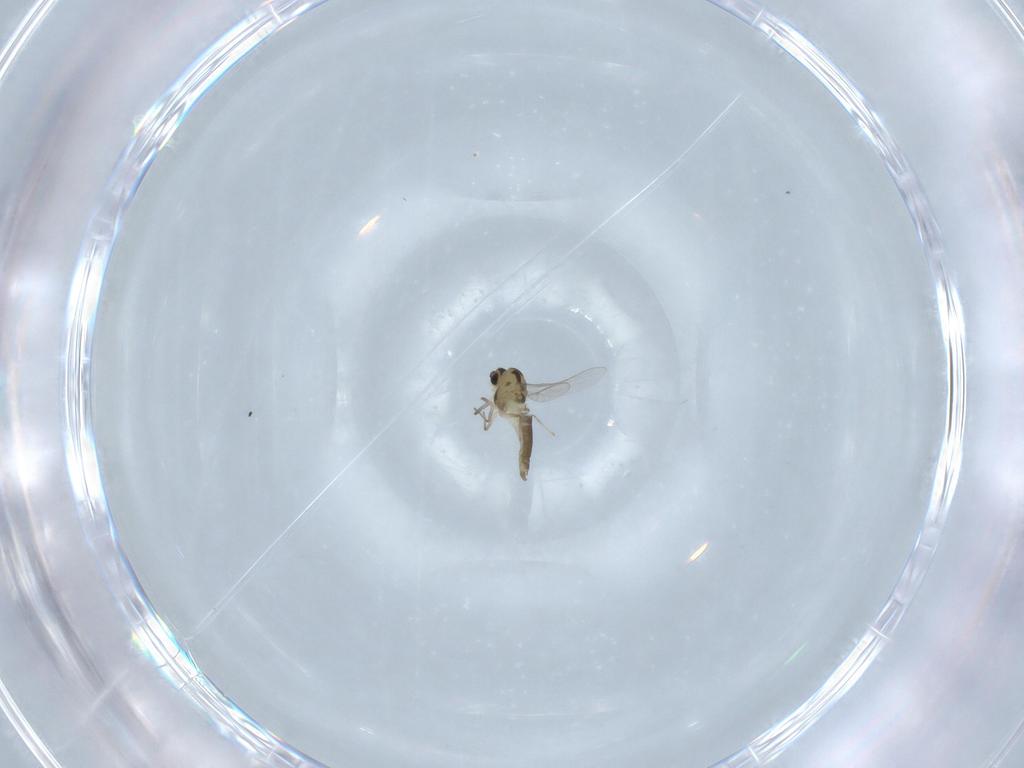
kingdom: Animalia
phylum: Arthropoda
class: Insecta
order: Diptera
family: Chironomidae
